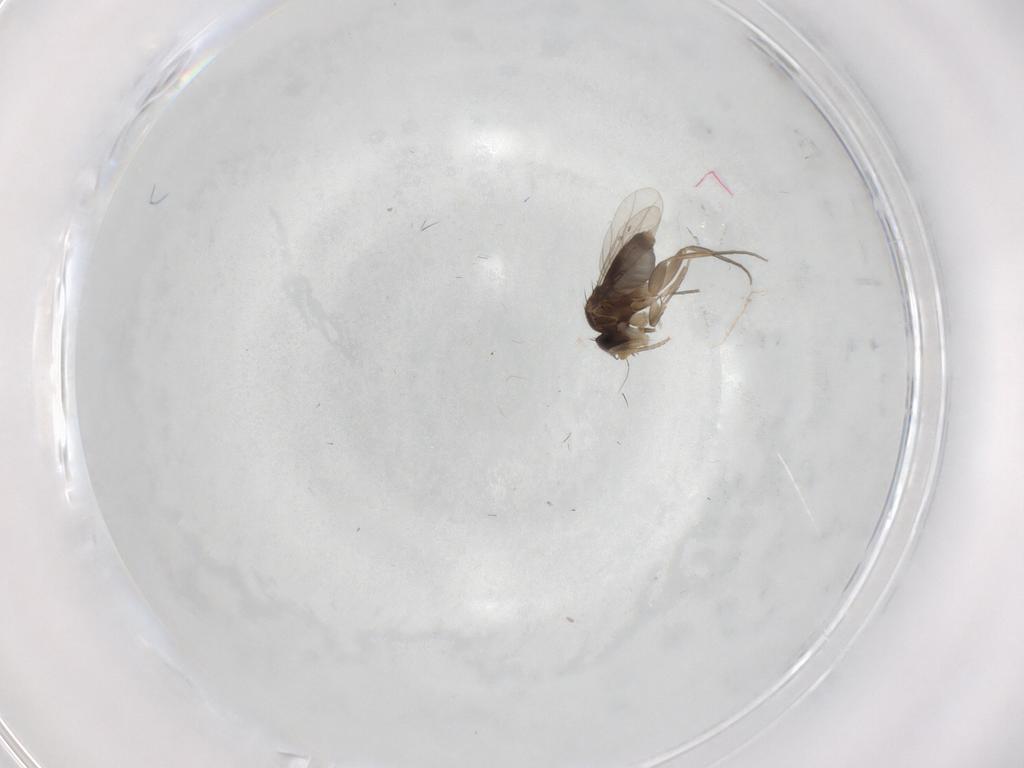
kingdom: Animalia
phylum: Arthropoda
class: Insecta
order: Diptera
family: Phoridae
